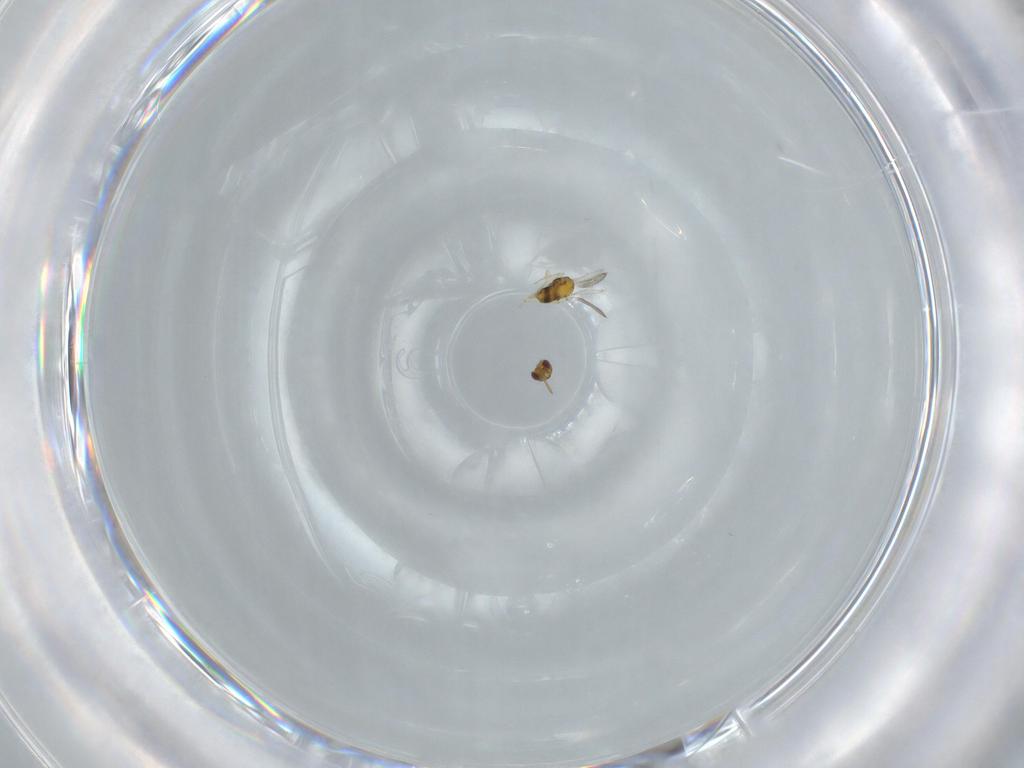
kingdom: Animalia
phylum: Arthropoda
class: Insecta
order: Hymenoptera
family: Aphelinidae
